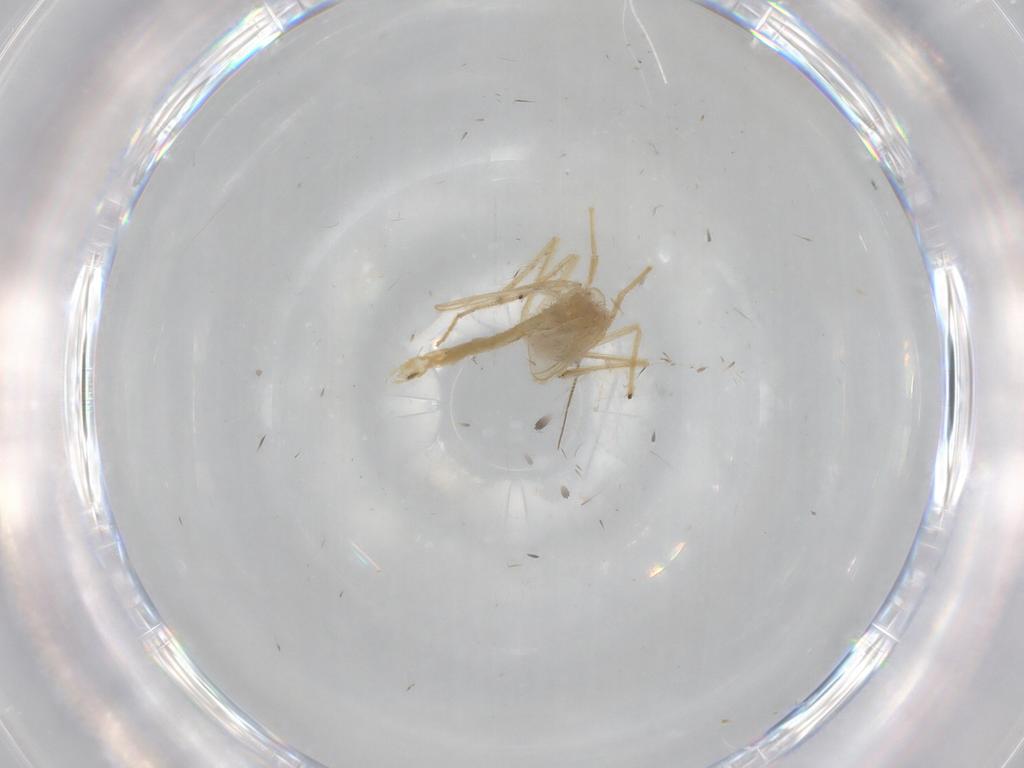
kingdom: Animalia
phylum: Arthropoda
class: Insecta
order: Diptera
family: Chironomidae
